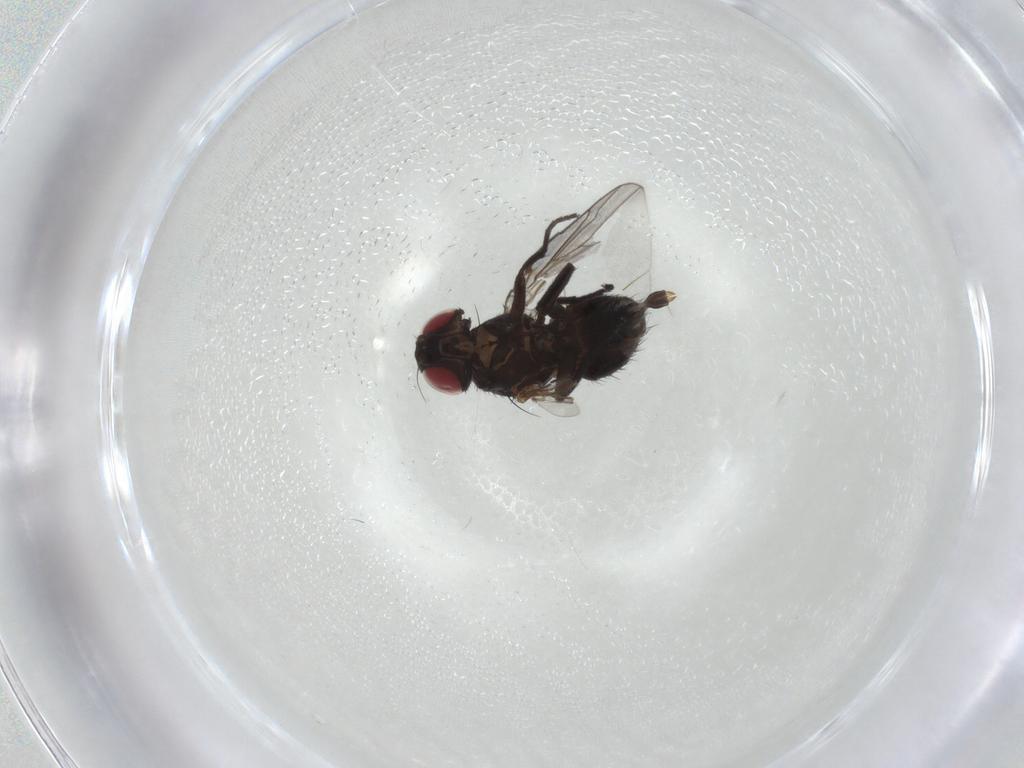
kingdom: Animalia
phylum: Arthropoda
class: Insecta
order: Diptera
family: Agromyzidae
